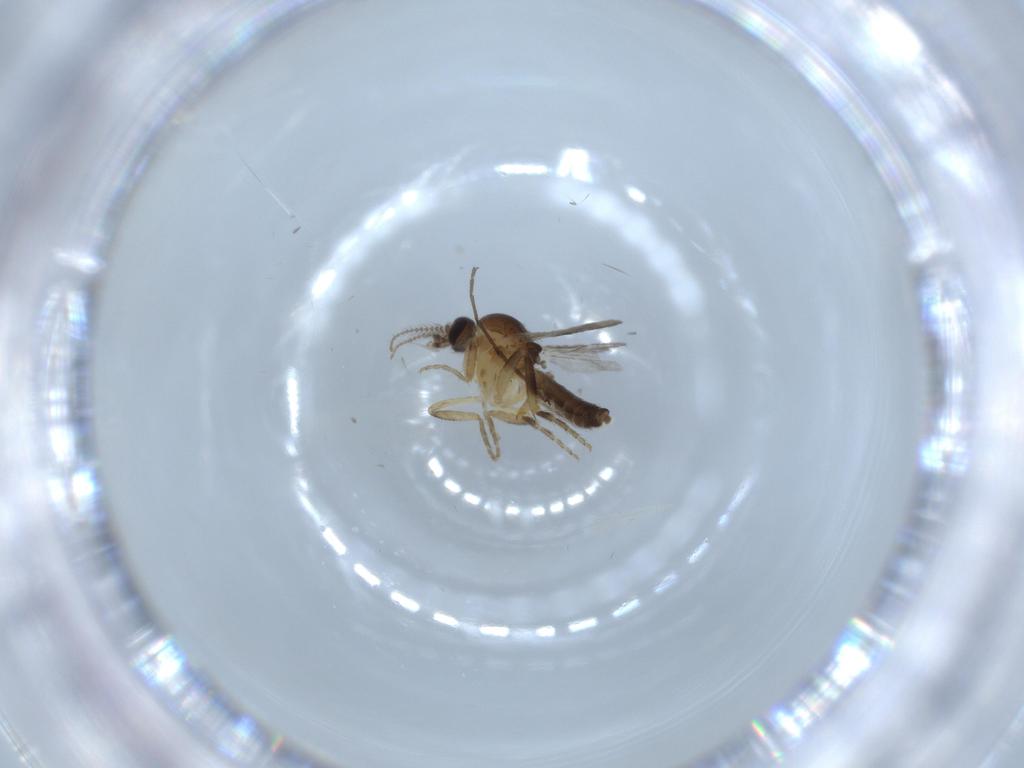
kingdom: Animalia
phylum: Arthropoda
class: Insecta
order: Diptera
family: Ceratopogonidae
